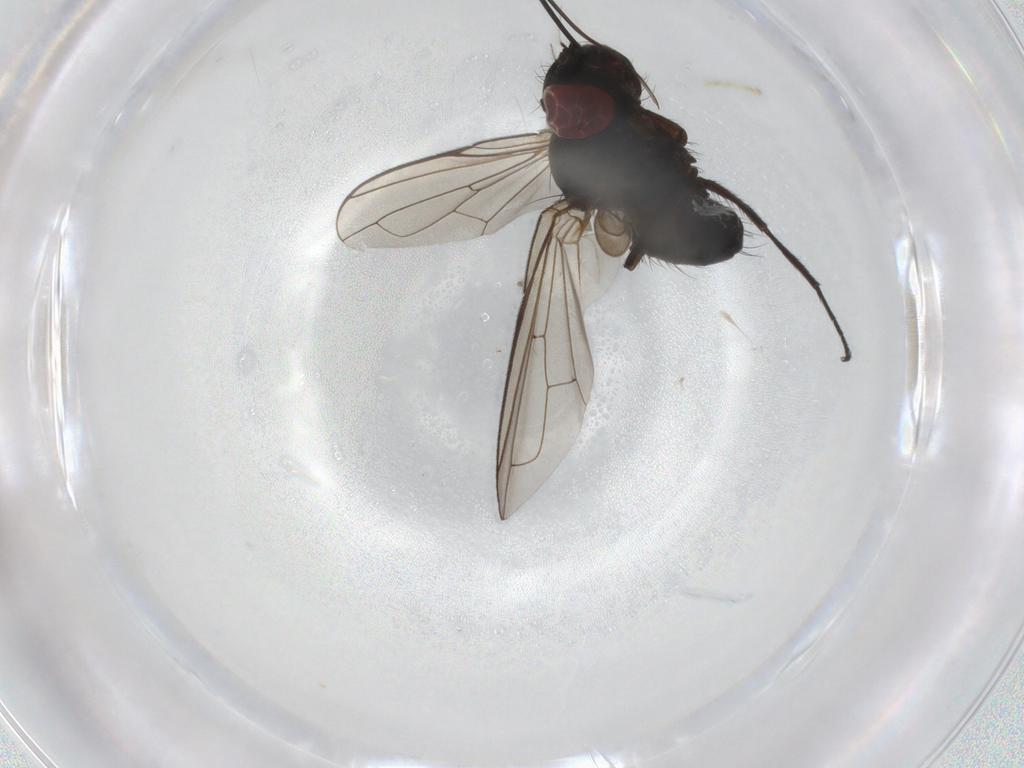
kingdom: Animalia
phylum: Arthropoda
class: Insecta
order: Diptera
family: Tachinidae
